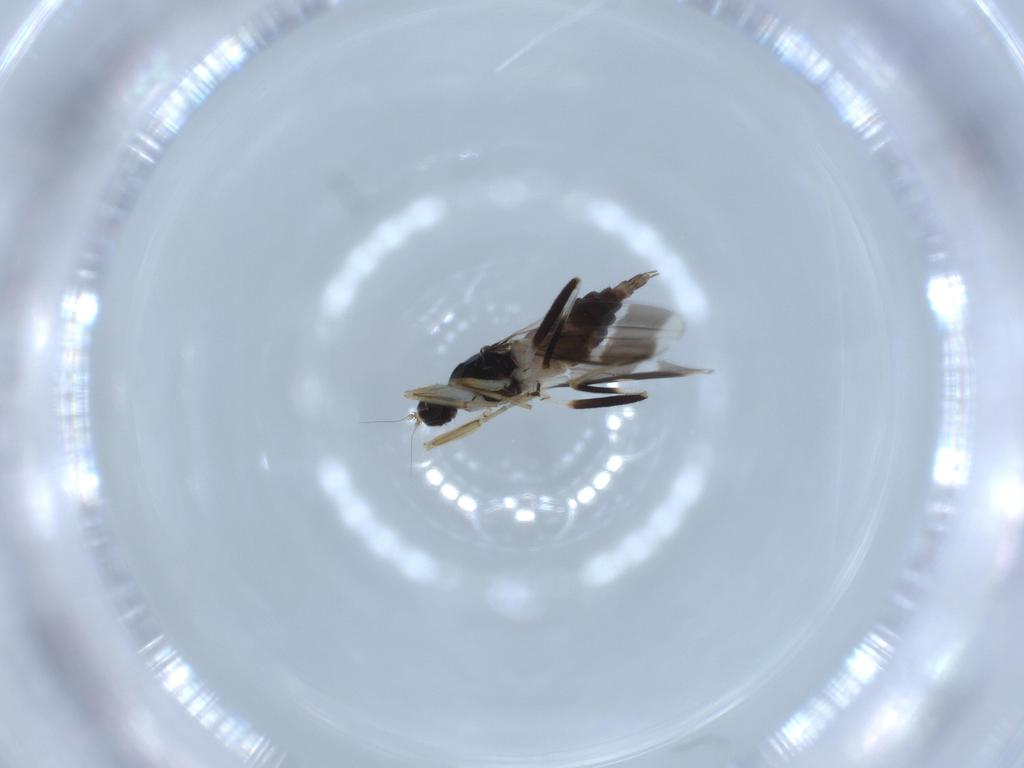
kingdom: Animalia
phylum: Arthropoda
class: Insecta
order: Diptera
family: Hybotidae
